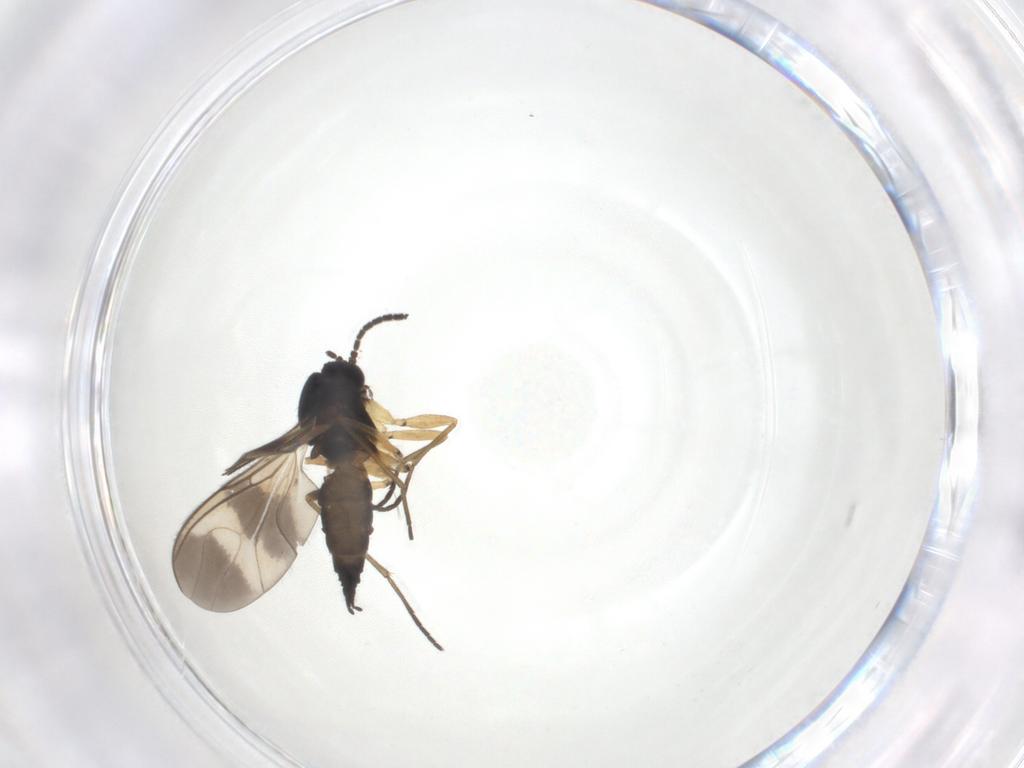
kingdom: Animalia
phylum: Arthropoda
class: Insecta
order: Diptera
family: Sciaridae
